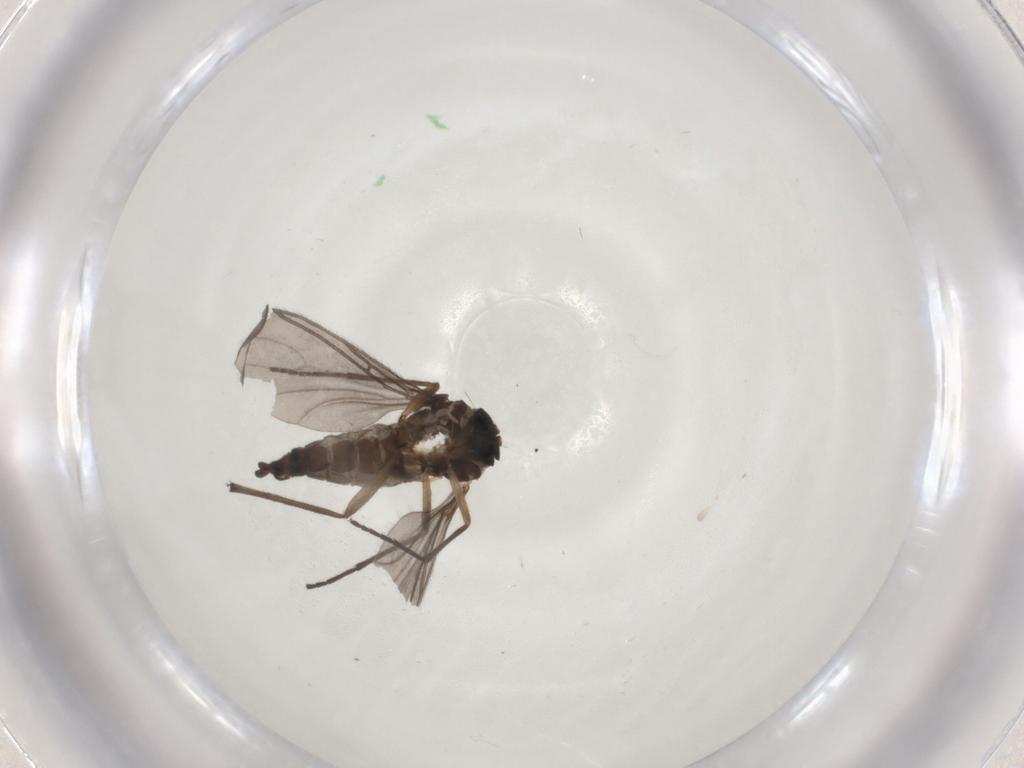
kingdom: Animalia
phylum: Arthropoda
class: Insecta
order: Diptera
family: Sciaridae
